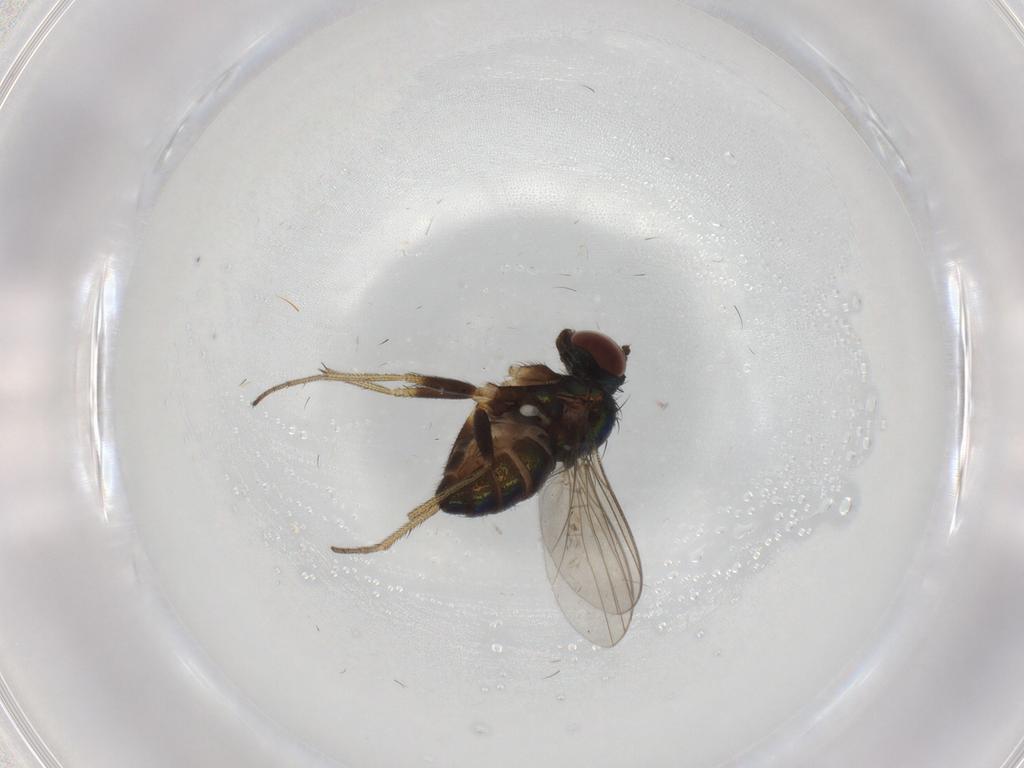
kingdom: Animalia
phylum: Arthropoda
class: Insecta
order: Diptera
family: Dolichopodidae
